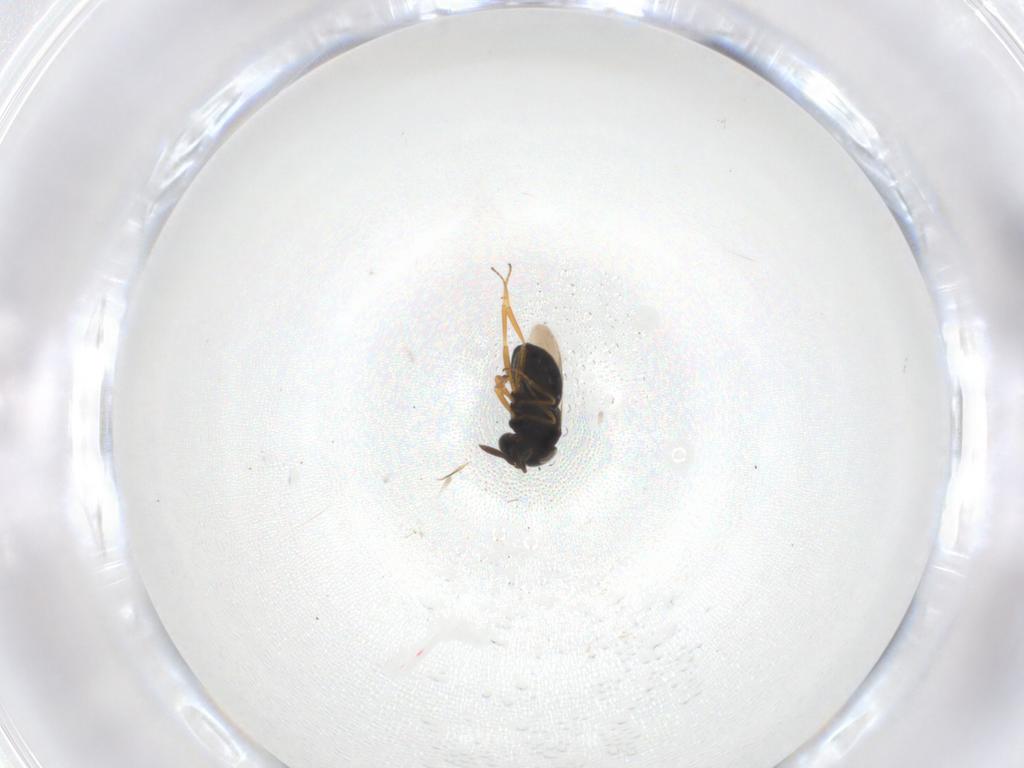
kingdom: Animalia
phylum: Arthropoda
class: Insecta
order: Hymenoptera
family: Scelionidae
